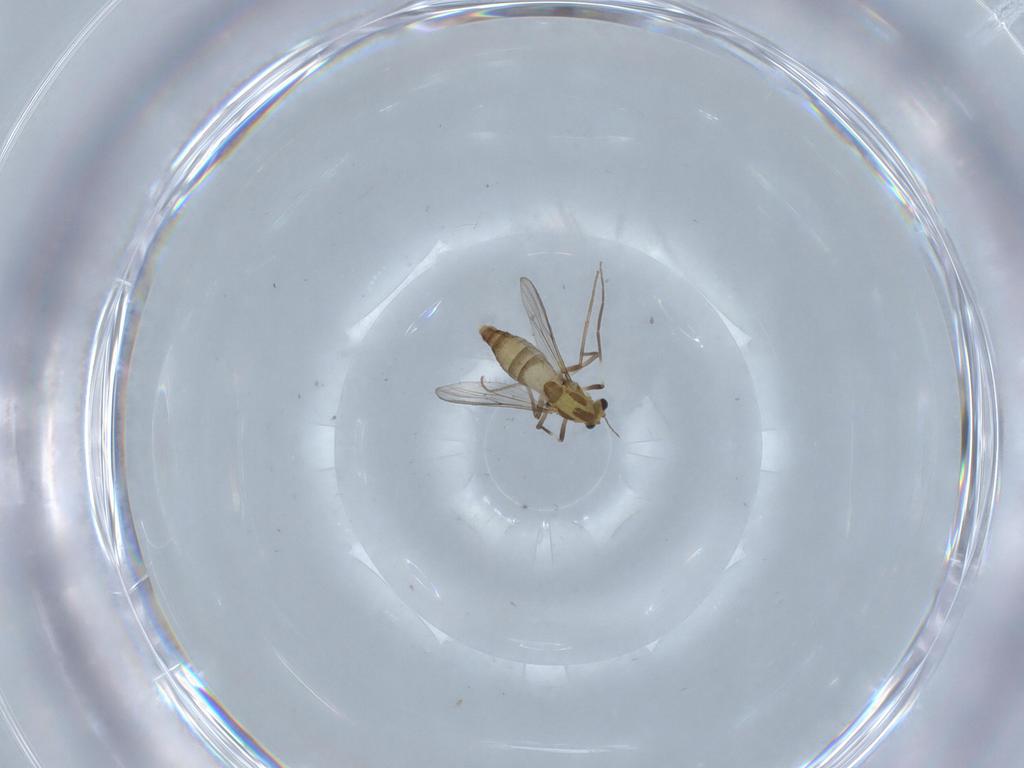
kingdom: Animalia
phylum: Arthropoda
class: Insecta
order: Diptera
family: Chironomidae
